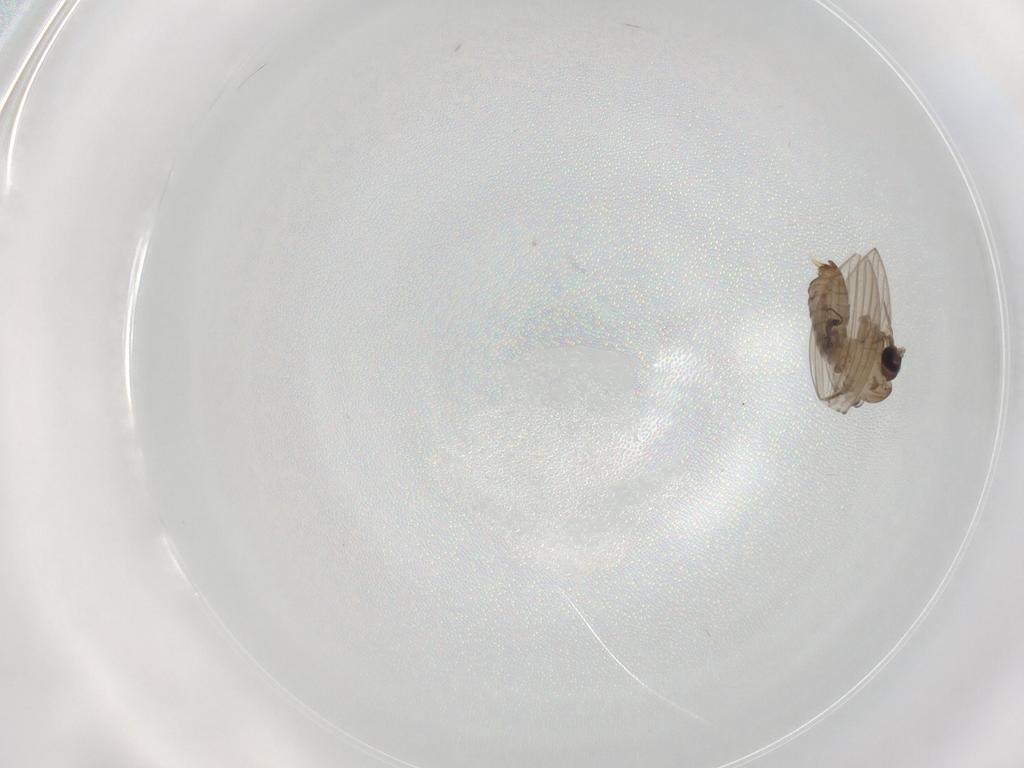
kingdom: Animalia
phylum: Arthropoda
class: Insecta
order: Diptera
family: Psychodidae
